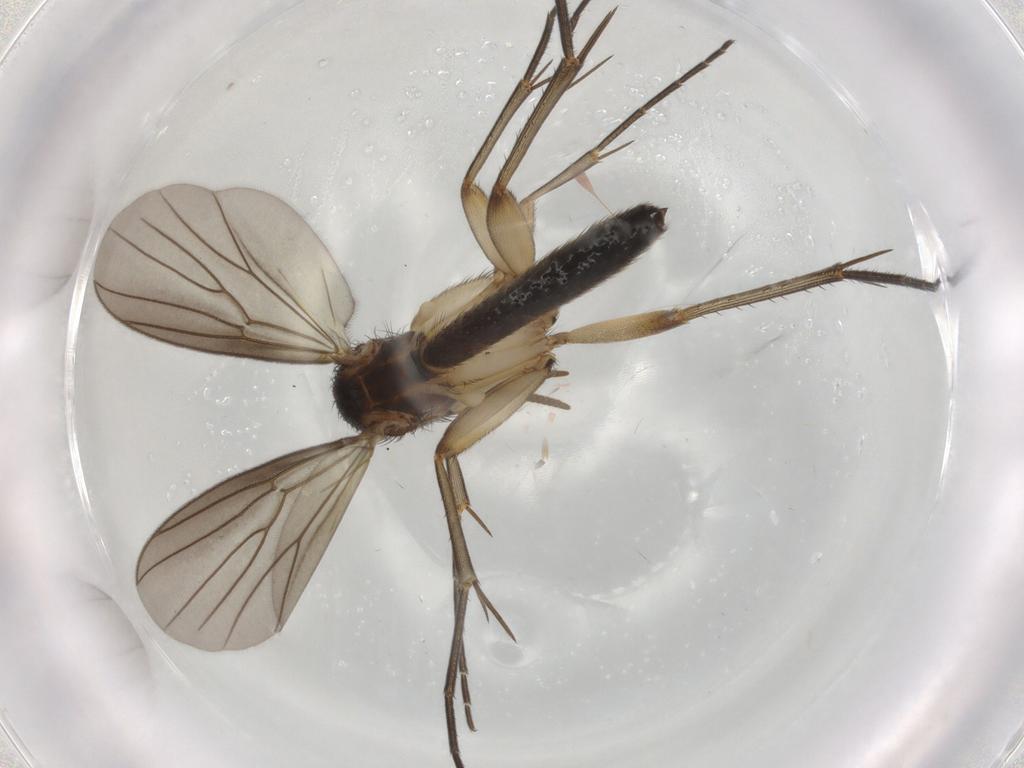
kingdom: Animalia
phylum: Arthropoda
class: Insecta
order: Diptera
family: Mycetophilidae
